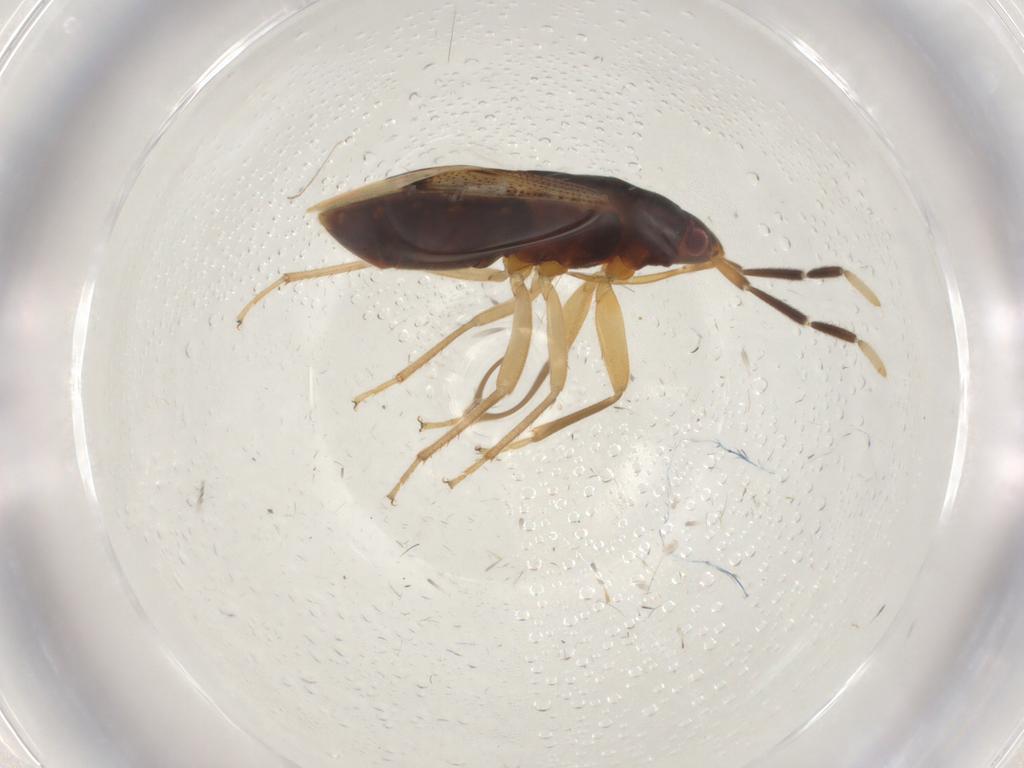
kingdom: Animalia
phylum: Arthropoda
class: Insecta
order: Hemiptera
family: Rhyparochromidae
